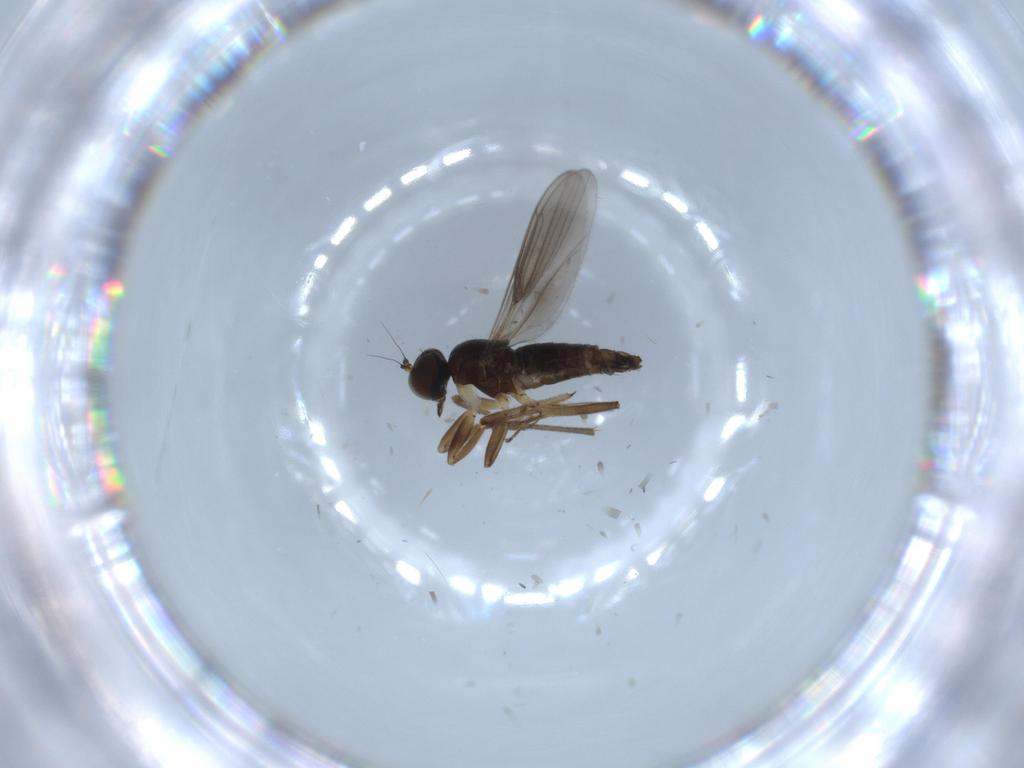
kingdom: Animalia
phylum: Arthropoda
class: Insecta
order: Diptera
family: Hybotidae
